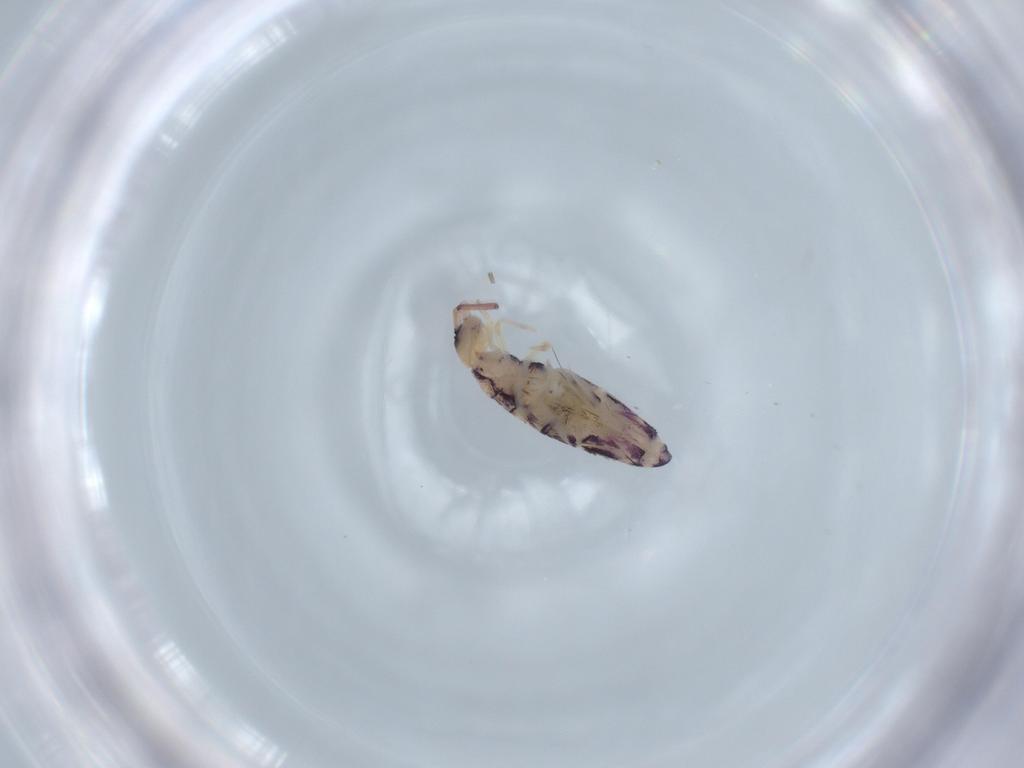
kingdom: Animalia
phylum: Arthropoda
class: Collembola
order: Entomobryomorpha
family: Entomobryidae
